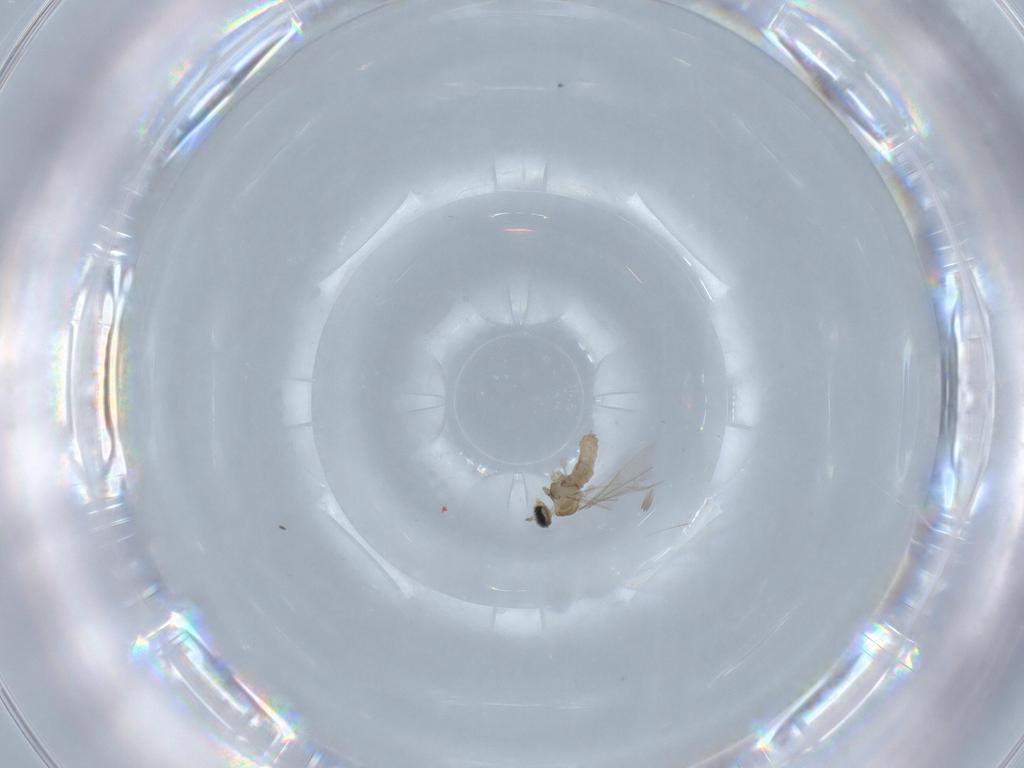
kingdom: Animalia
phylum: Arthropoda
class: Insecta
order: Diptera
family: Cecidomyiidae
